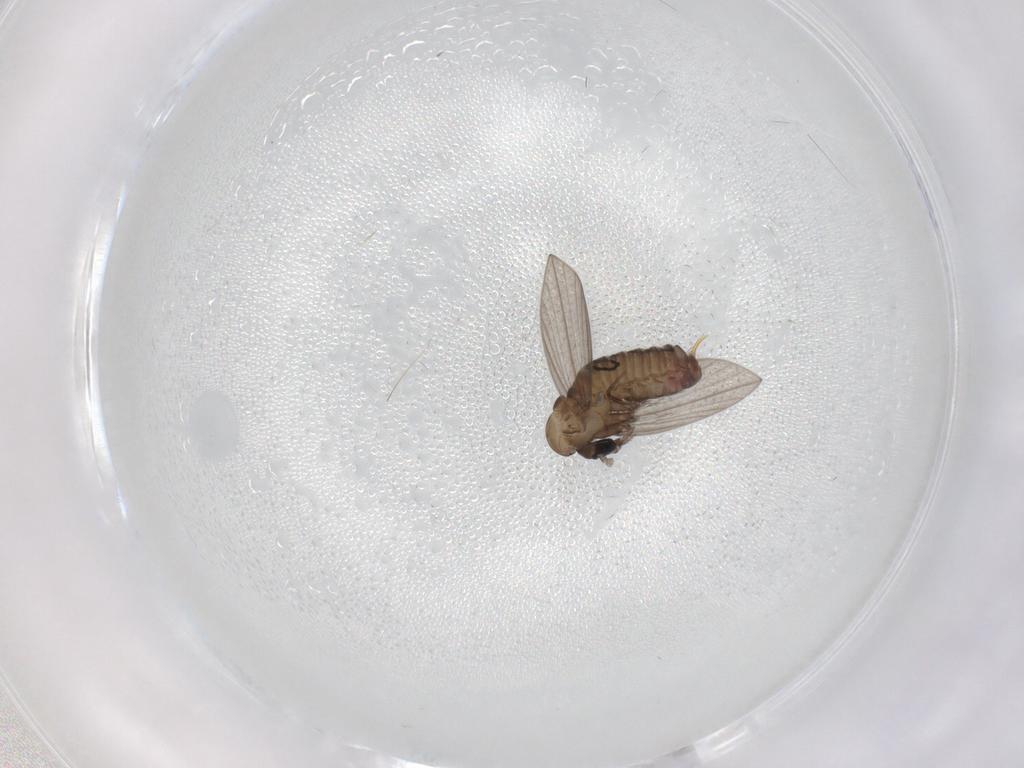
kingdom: Animalia
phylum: Arthropoda
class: Insecta
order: Diptera
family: Psychodidae
